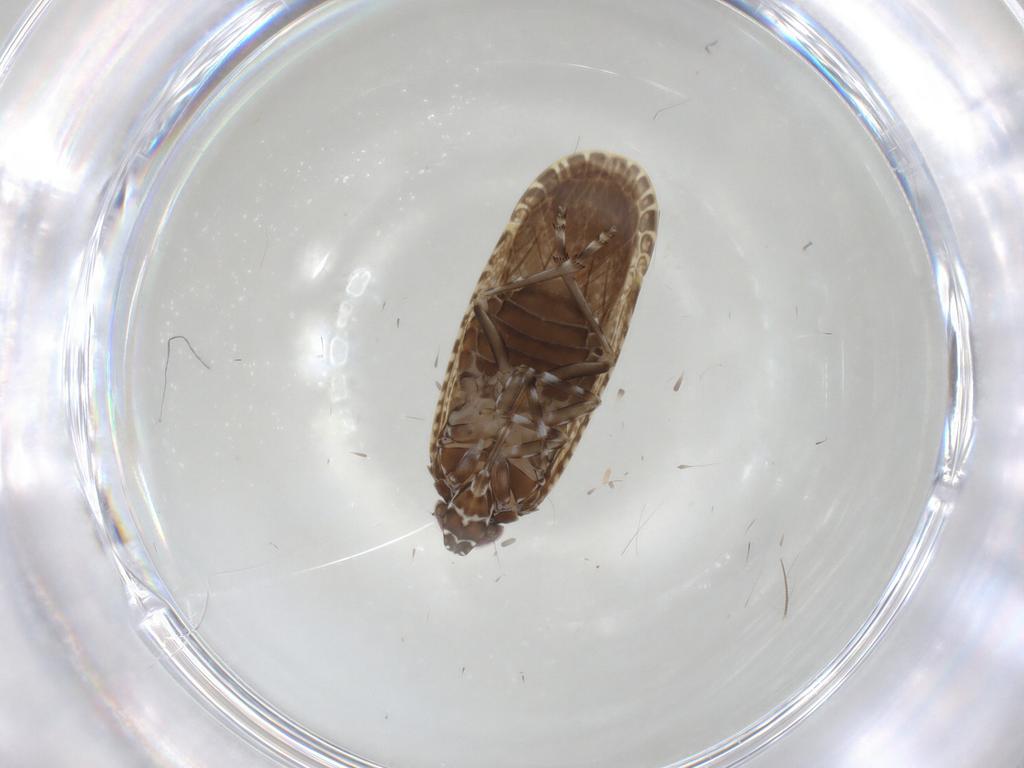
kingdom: Animalia
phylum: Arthropoda
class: Insecta
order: Hemiptera
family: Achilidae
